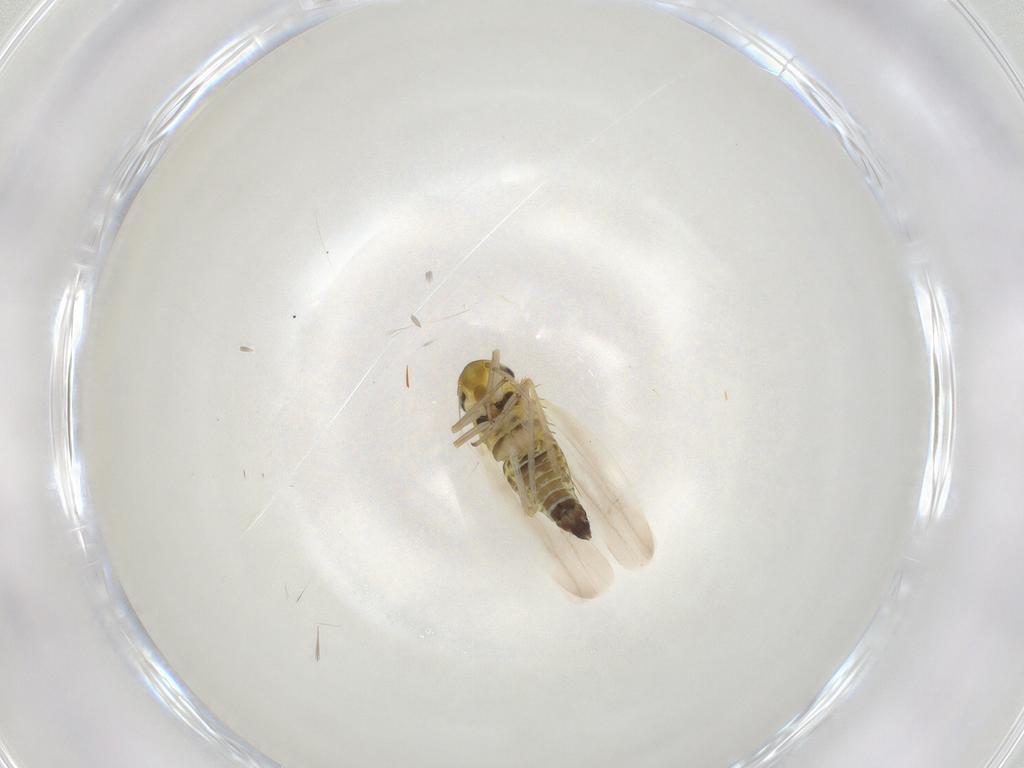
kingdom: Animalia
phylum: Arthropoda
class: Insecta
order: Hemiptera
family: Cicadellidae
